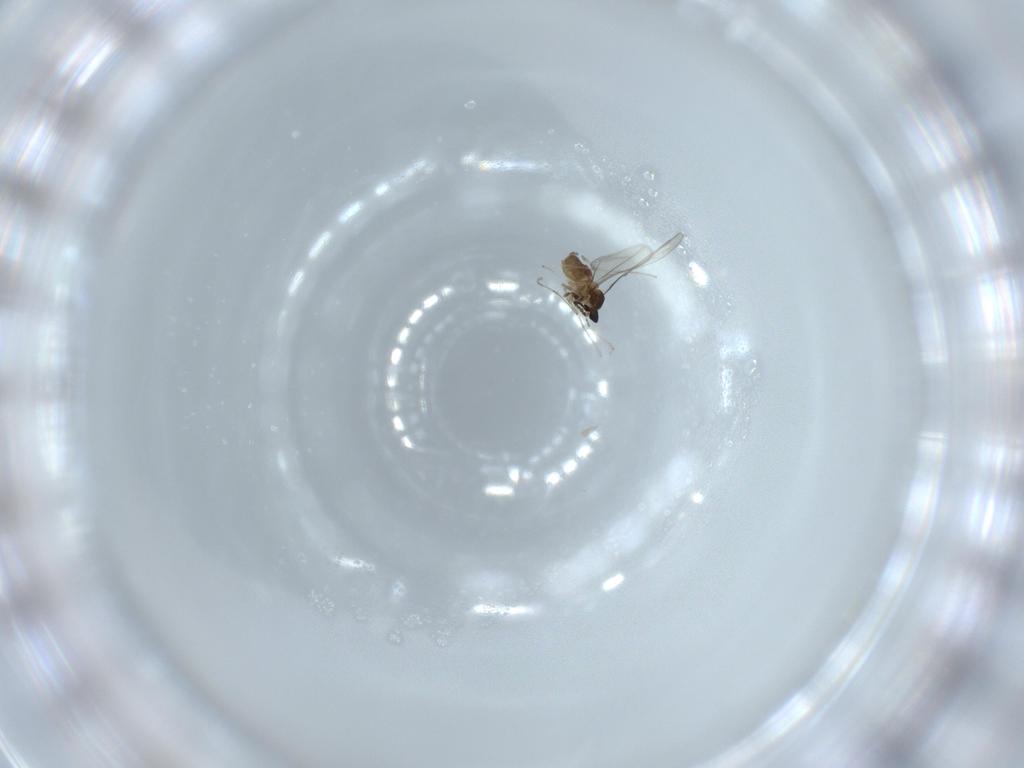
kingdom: Animalia
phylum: Arthropoda
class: Insecta
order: Diptera
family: Cecidomyiidae
